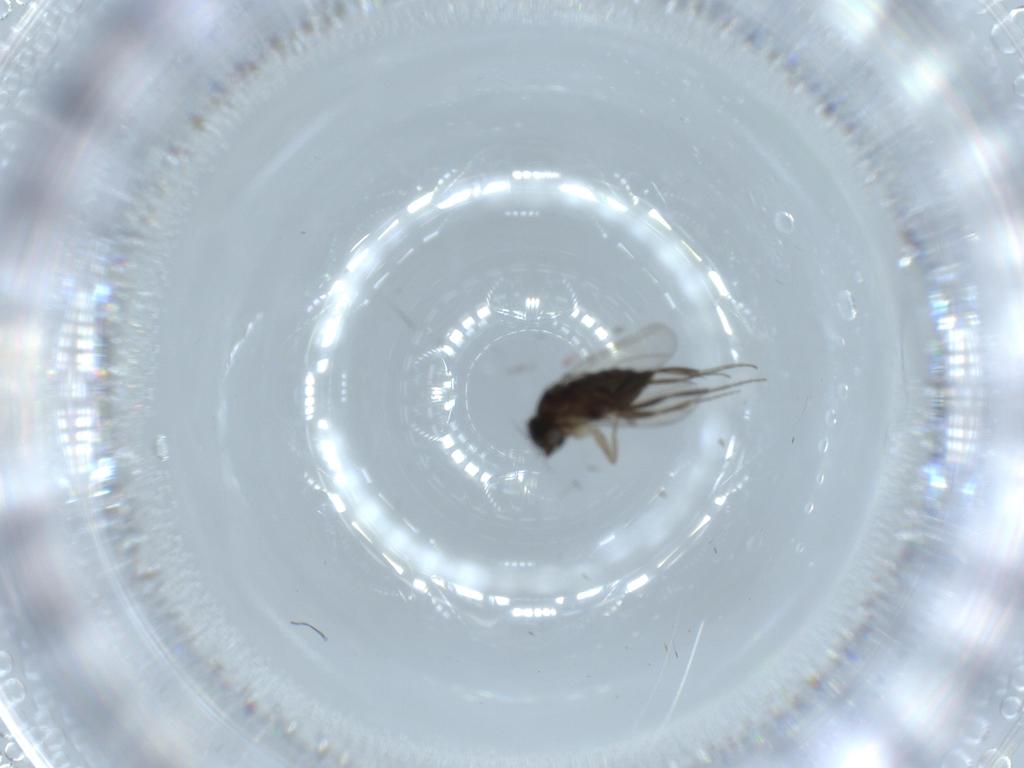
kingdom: Animalia
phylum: Arthropoda
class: Insecta
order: Diptera
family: Phoridae
